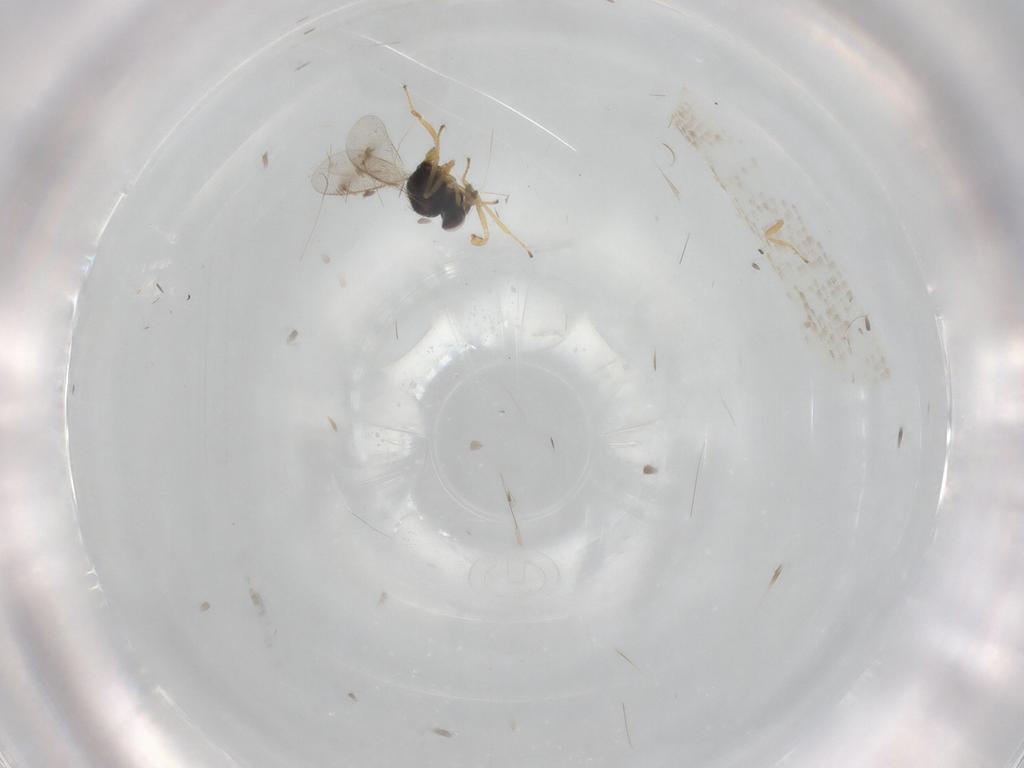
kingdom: Animalia
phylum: Arthropoda
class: Insecta
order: Hymenoptera
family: Eulophidae
